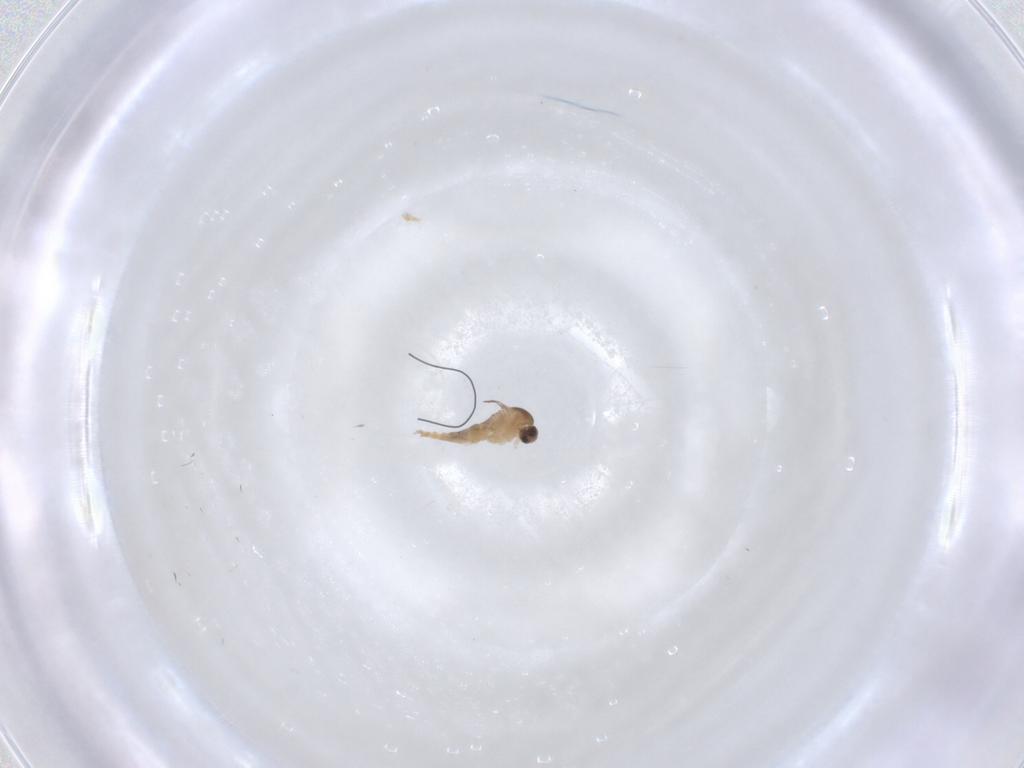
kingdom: Animalia
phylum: Arthropoda
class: Insecta
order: Diptera
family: Cecidomyiidae
